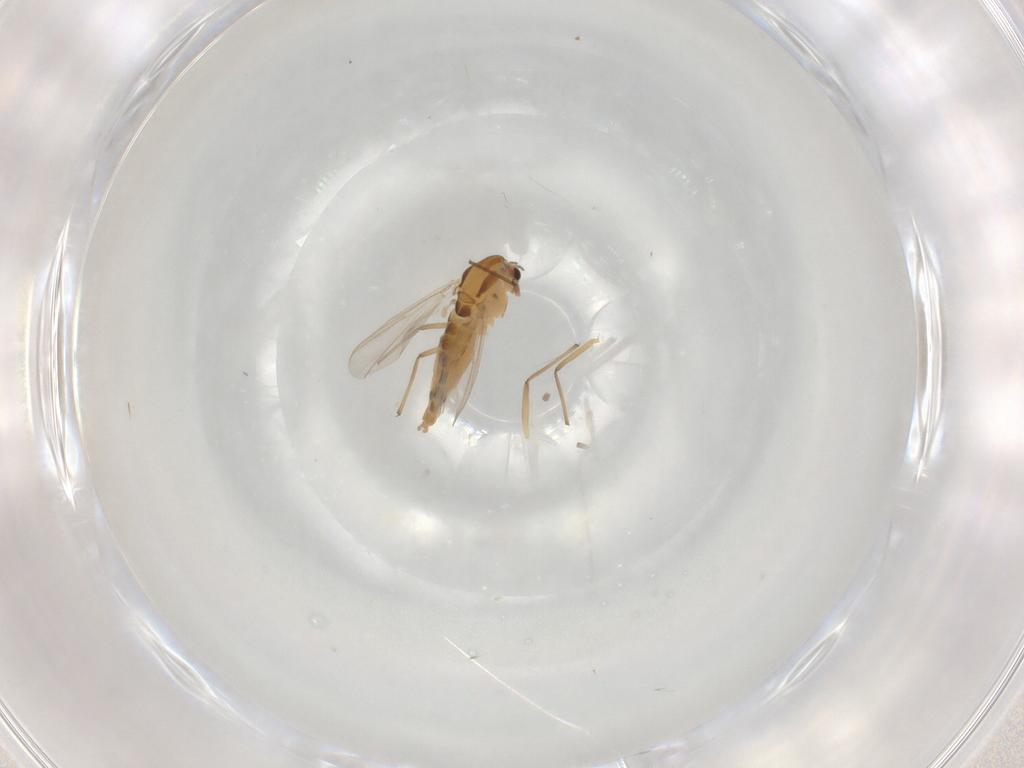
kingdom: Animalia
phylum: Arthropoda
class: Insecta
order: Diptera
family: Chironomidae
